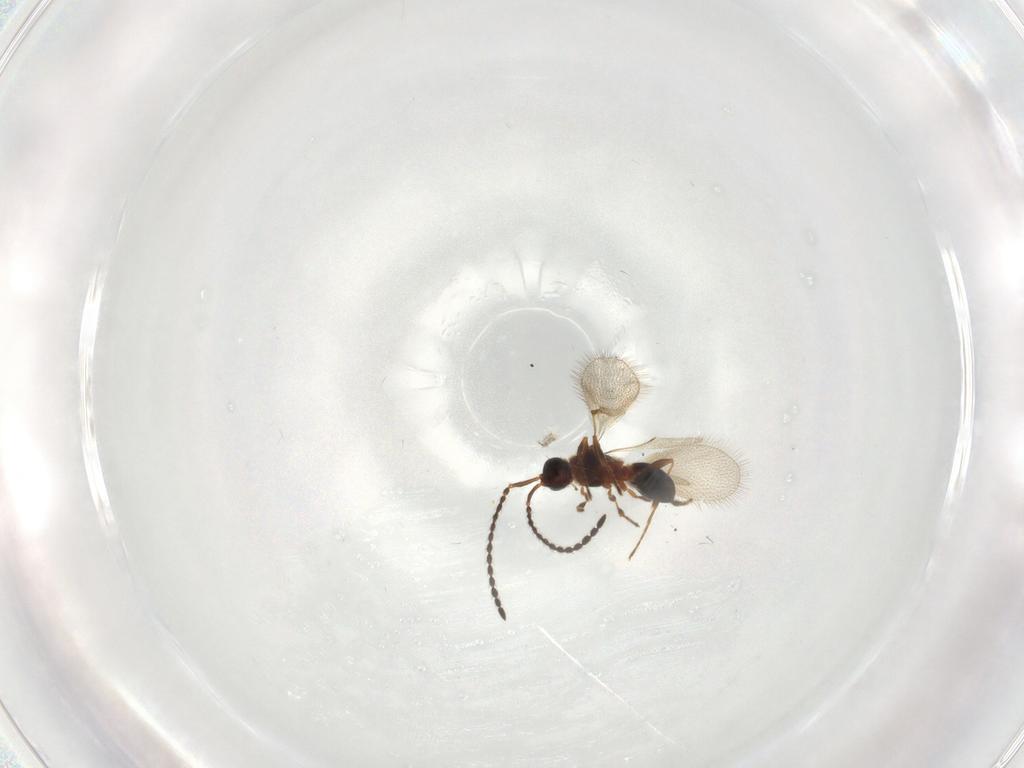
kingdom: Animalia
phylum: Arthropoda
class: Insecta
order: Hymenoptera
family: Diapriidae
